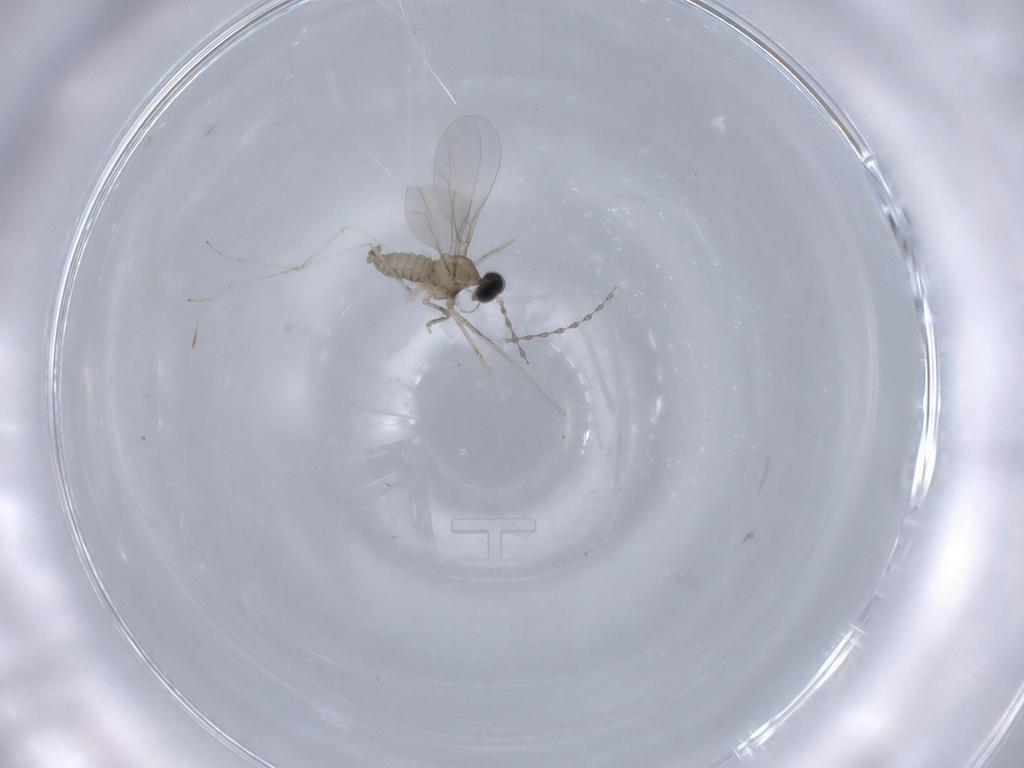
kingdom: Animalia
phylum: Arthropoda
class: Insecta
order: Diptera
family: Cecidomyiidae
